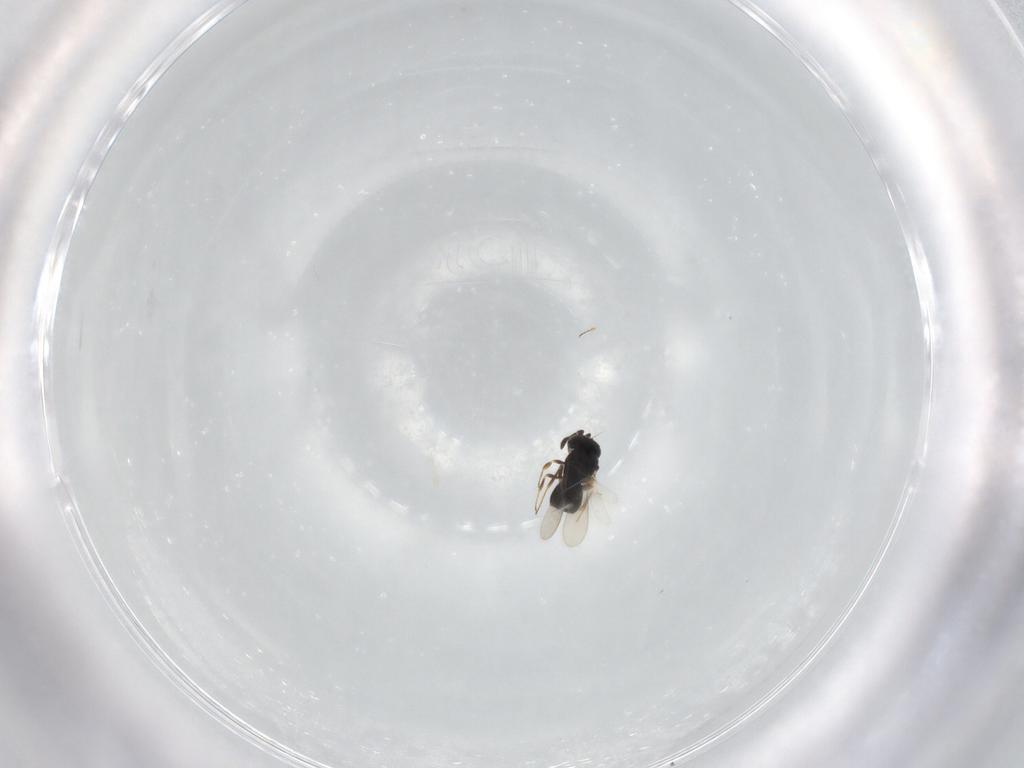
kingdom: Animalia
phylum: Arthropoda
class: Insecta
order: Hymenoptera
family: Scelionidae
